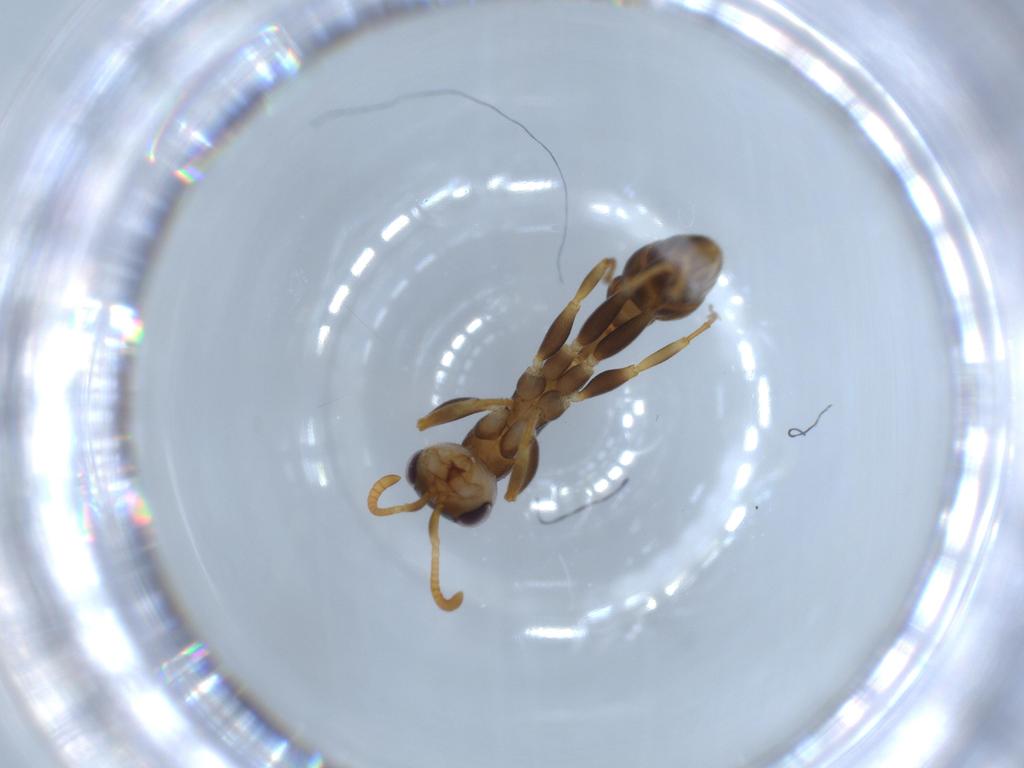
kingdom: Animalia
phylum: Arthropoda
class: Insecta
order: Hymenoptera
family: Formicidae
